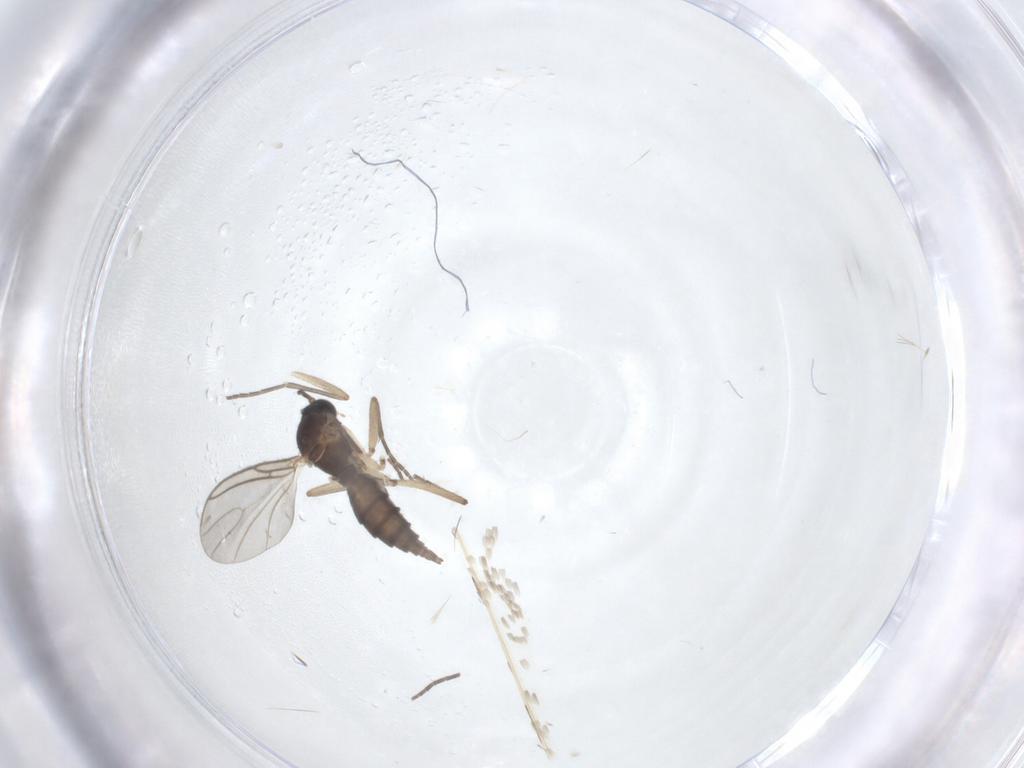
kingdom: Animalia
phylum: Arthropoda
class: Insecta
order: Diptera
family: Sciaridae
